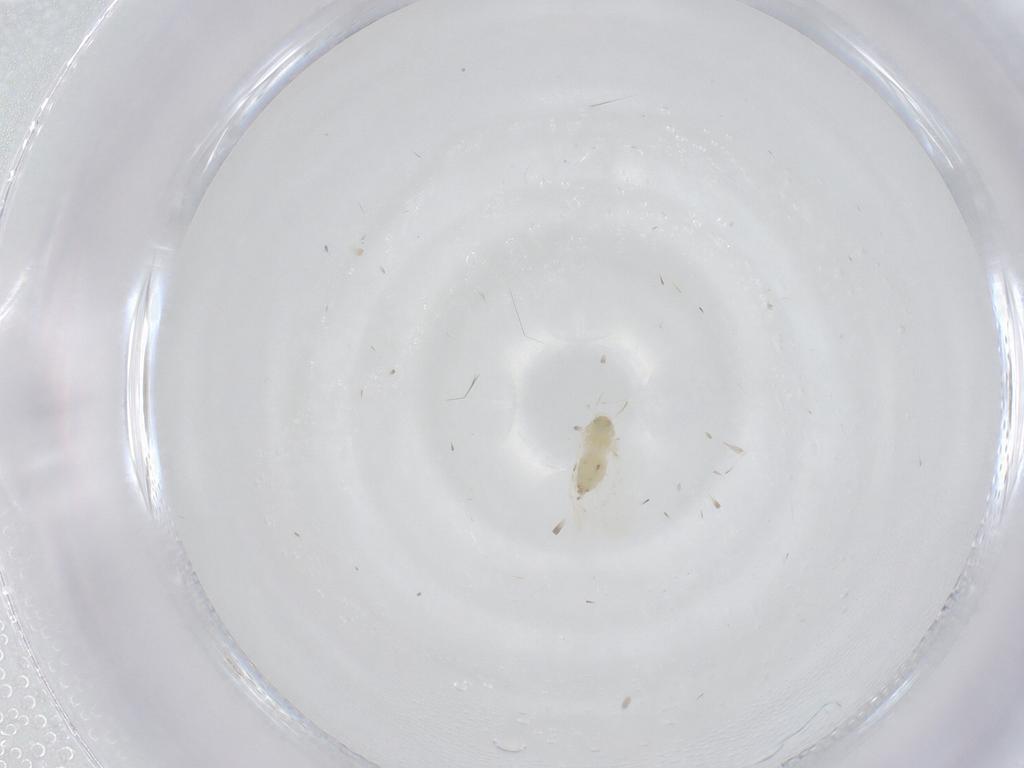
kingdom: Animalia
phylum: Arthropoda
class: Insecta
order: Hemiptera
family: Aleyrodidae
